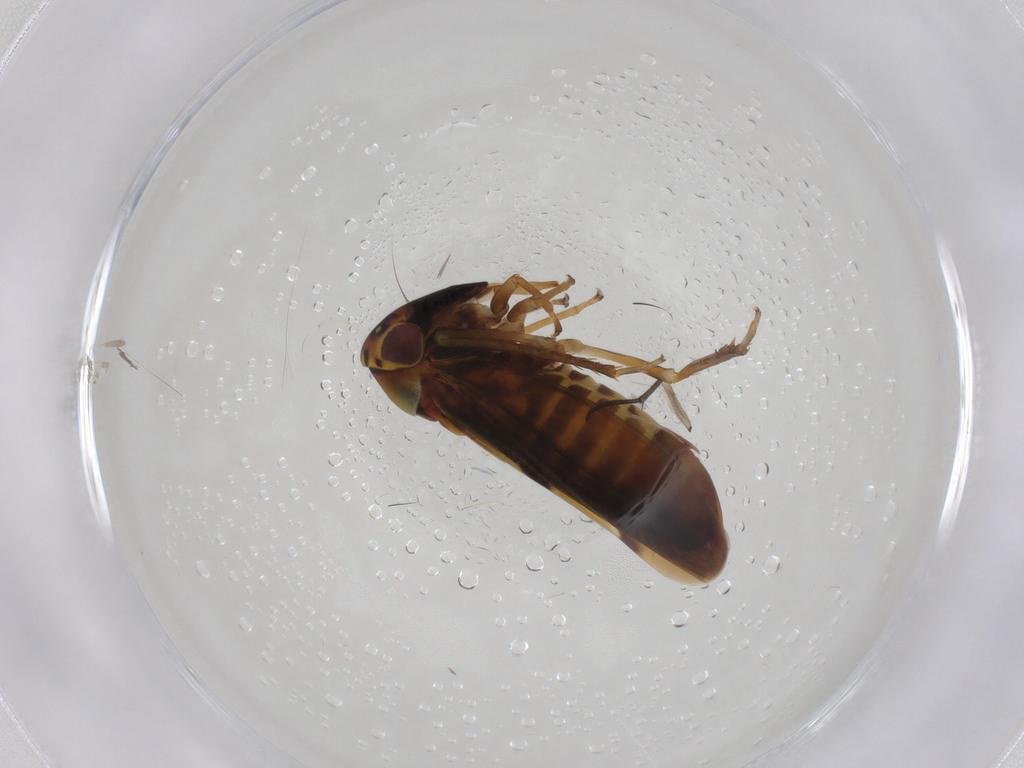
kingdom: Animalia
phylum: Arthropoda
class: Insecta
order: Hemiptera
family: Cicadellidae
